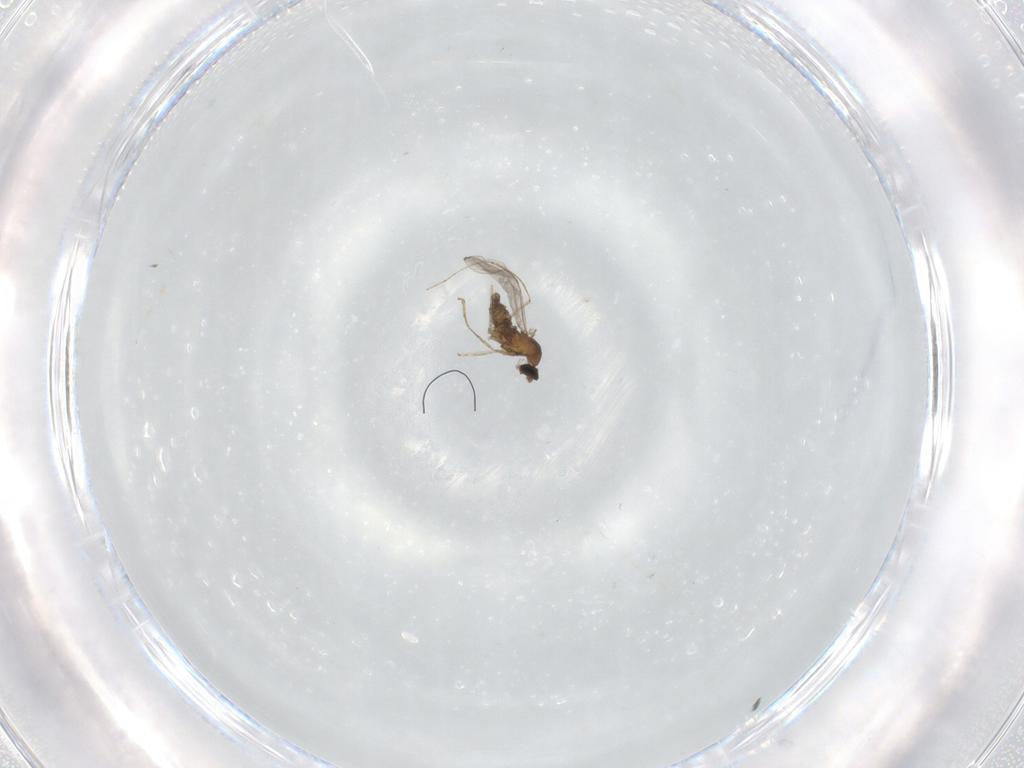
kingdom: Animalia
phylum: Arthropoda
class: Insecta
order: Diptera
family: Cecidomyiidae
